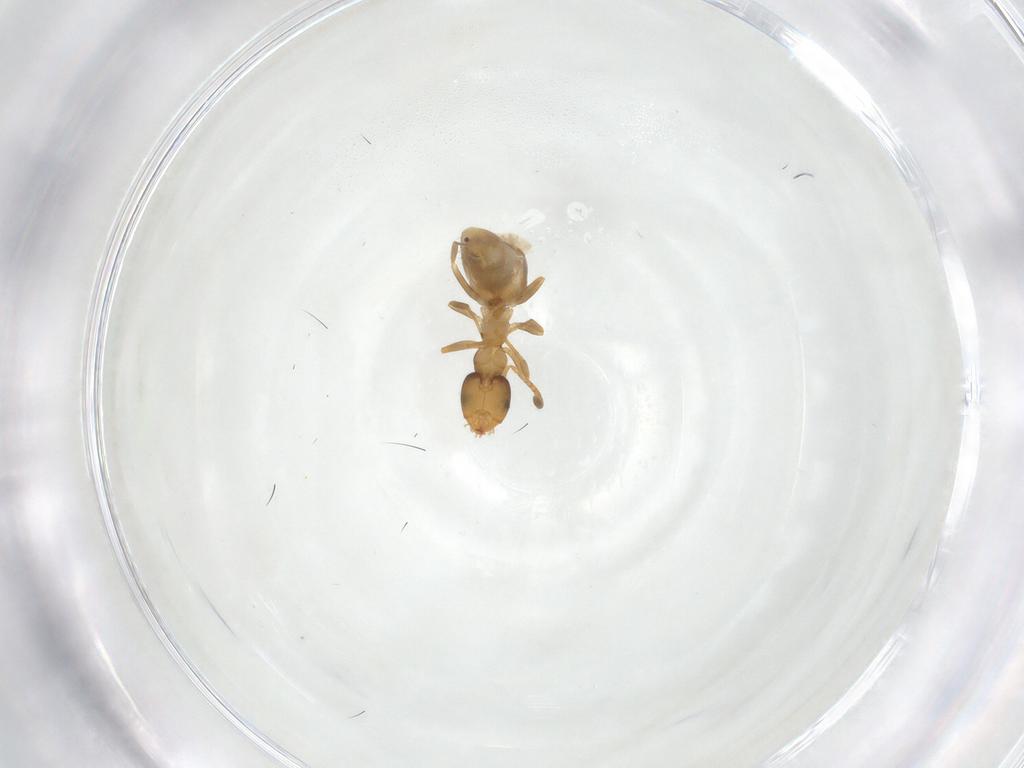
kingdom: Animalia
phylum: Arthropoda
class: Insecta
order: Hymenoptera
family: Formicidae
